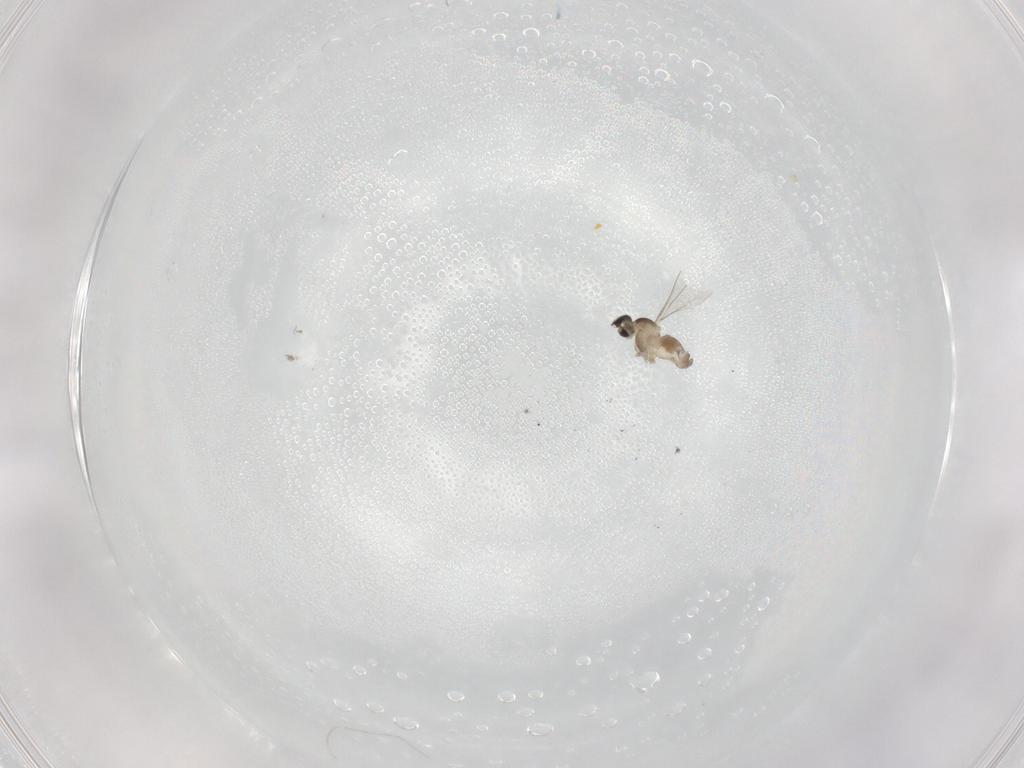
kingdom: Animalia
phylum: Arthropoda
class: Insecta
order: Diptera
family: Cecidomyiidae
